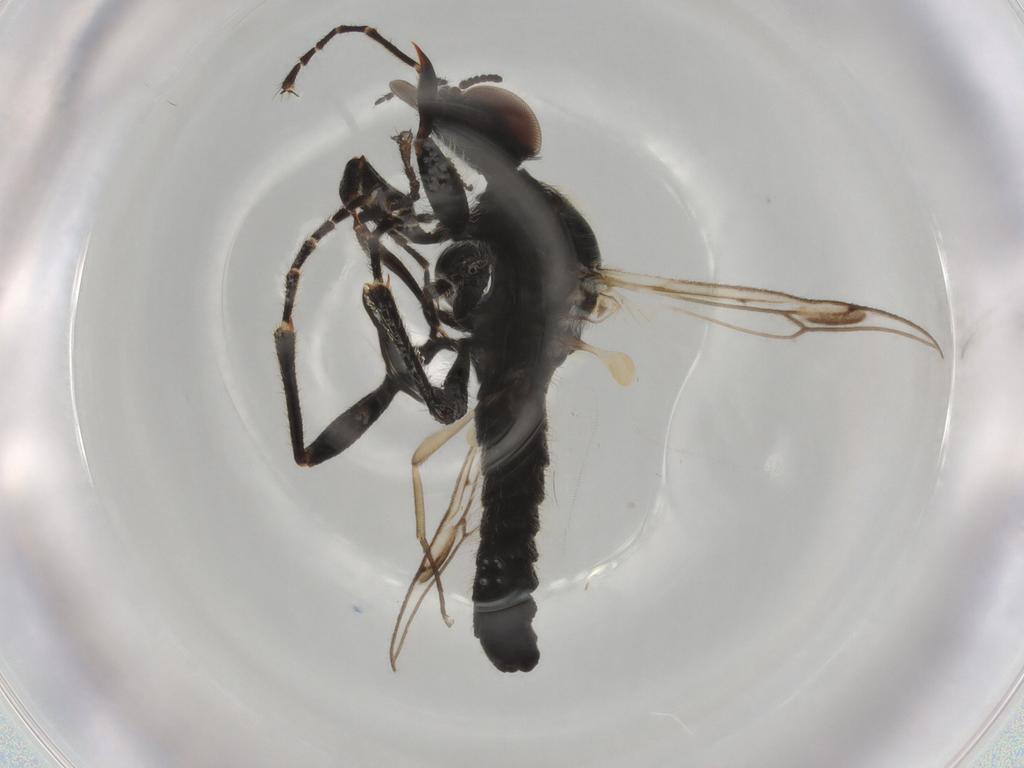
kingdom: Animalia
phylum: Arthropoda
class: Insecta
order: Diptera
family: Bibionidae
